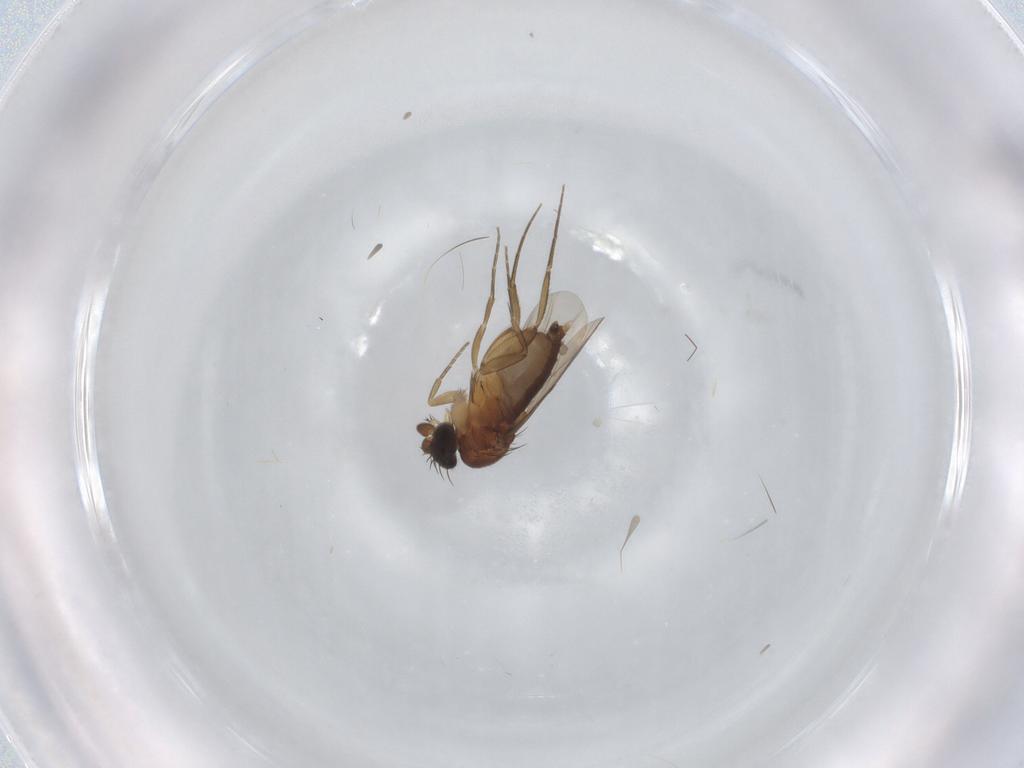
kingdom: Animalia
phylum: Arthropoda
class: Insecta
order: Diptera
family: Phoridae
